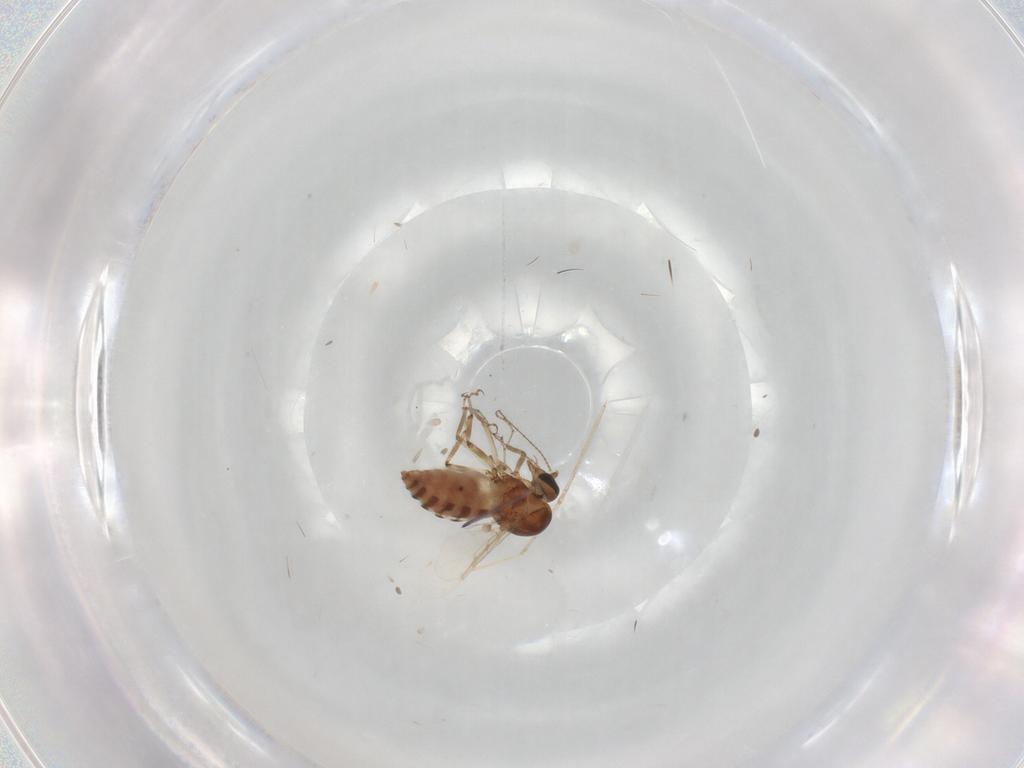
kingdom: Animalia
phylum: Arthropoda
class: Insecta
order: Diptera
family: Ceratopogonidae
